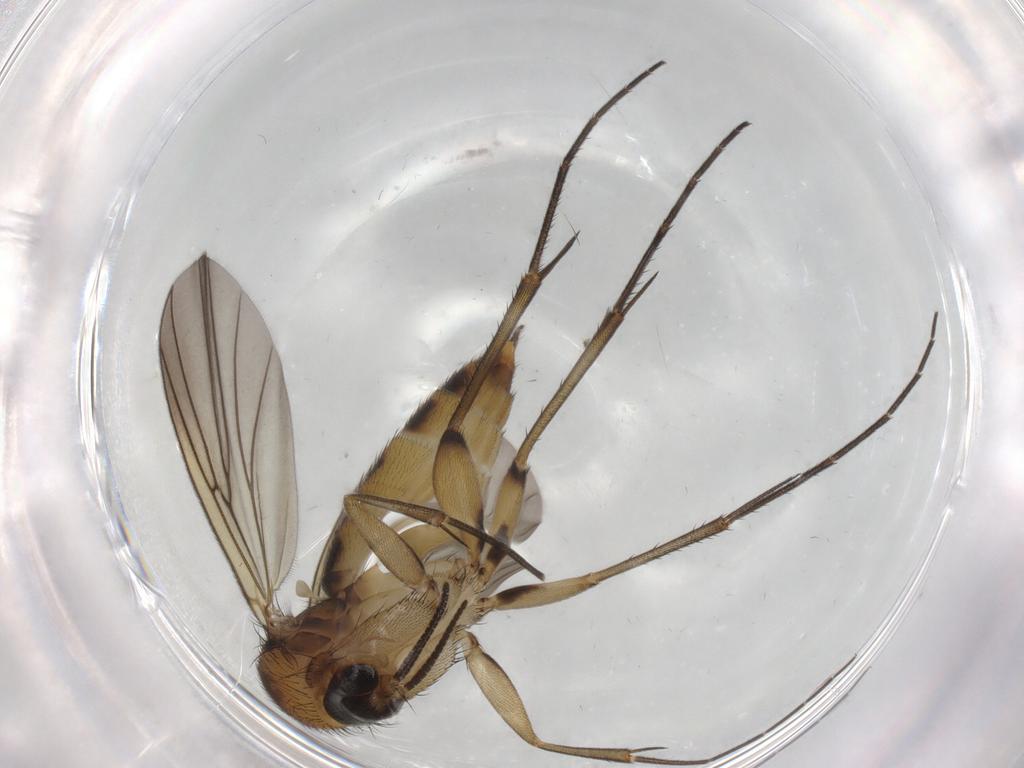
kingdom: Animalia
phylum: Arthropoda
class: Insecta
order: Diptera
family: Mycetophilidae
